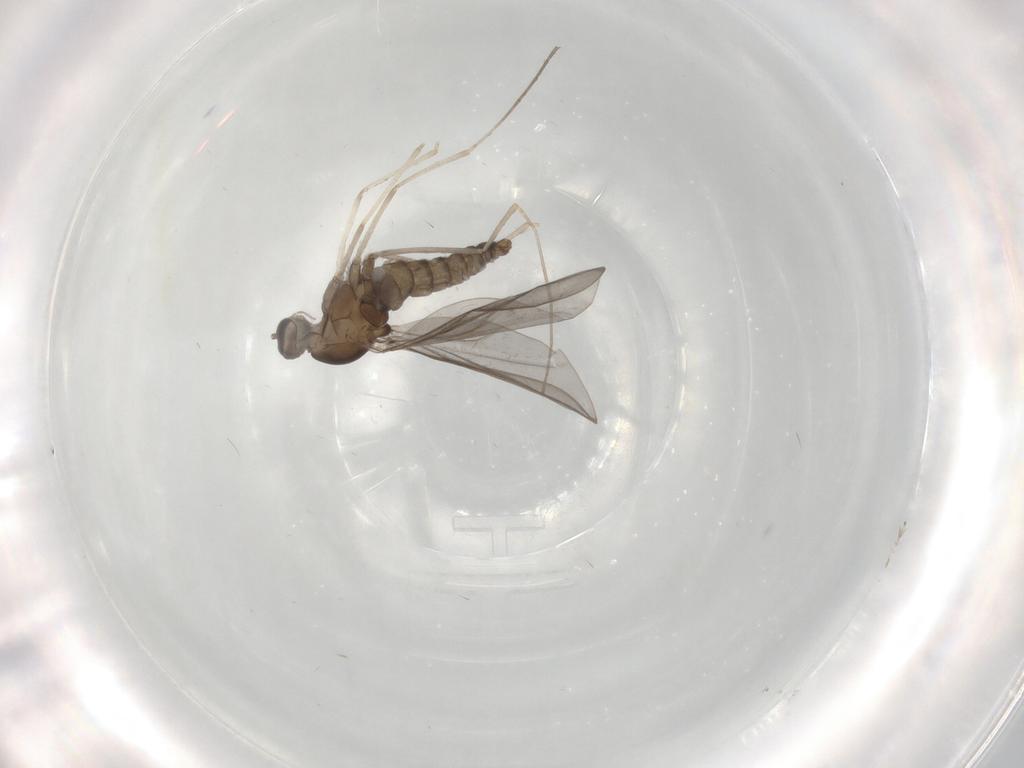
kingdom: Animalia
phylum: Arthropoda
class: Insecta
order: Diptera
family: Cecidomyiidae
